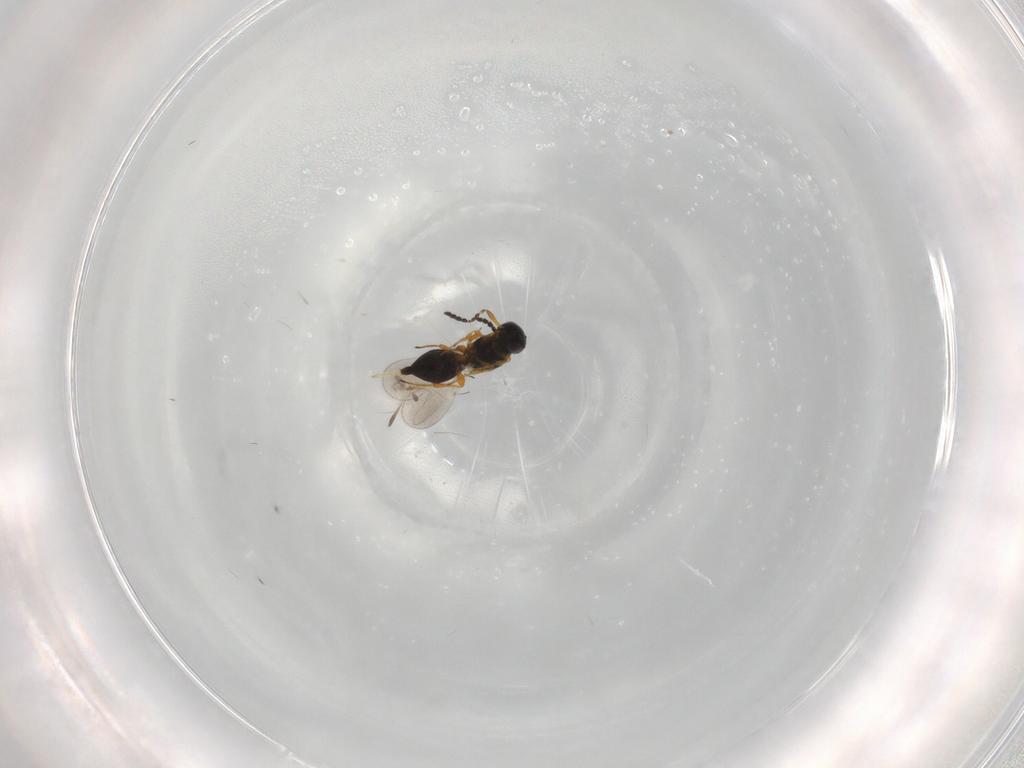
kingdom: Animalia
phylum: Arthropoda
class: Insecta
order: Hymenoptera
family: Platygastridae
